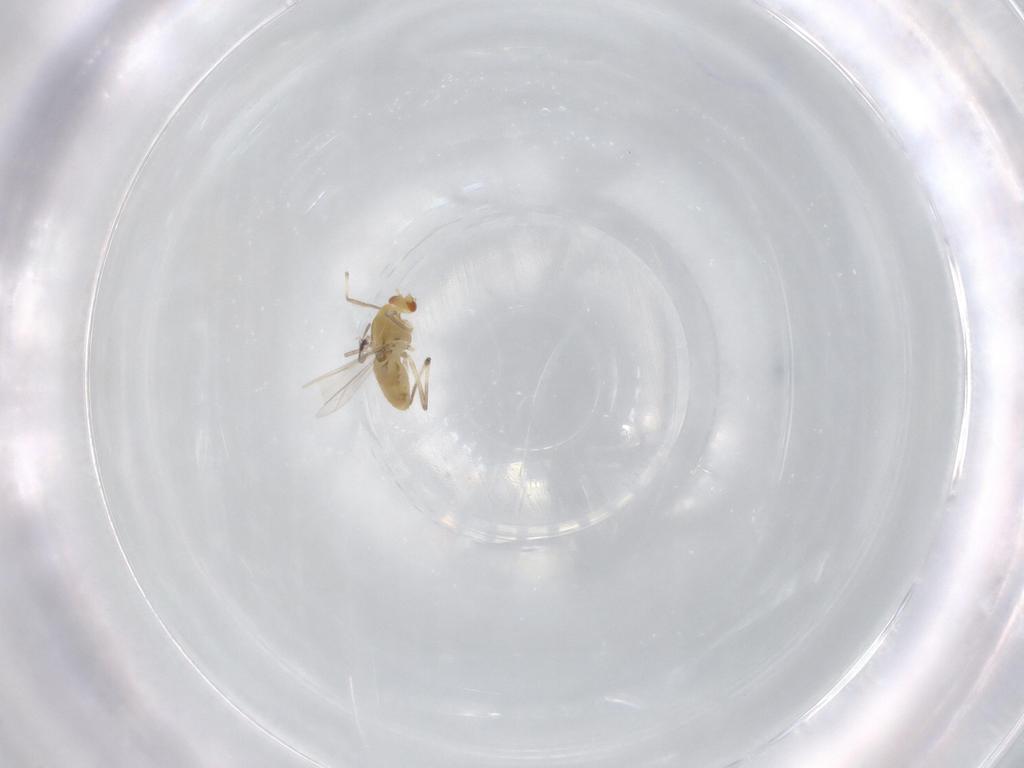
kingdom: Animalia
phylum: Arthropoda
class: Insecta
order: Diptera
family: Chironomidae
